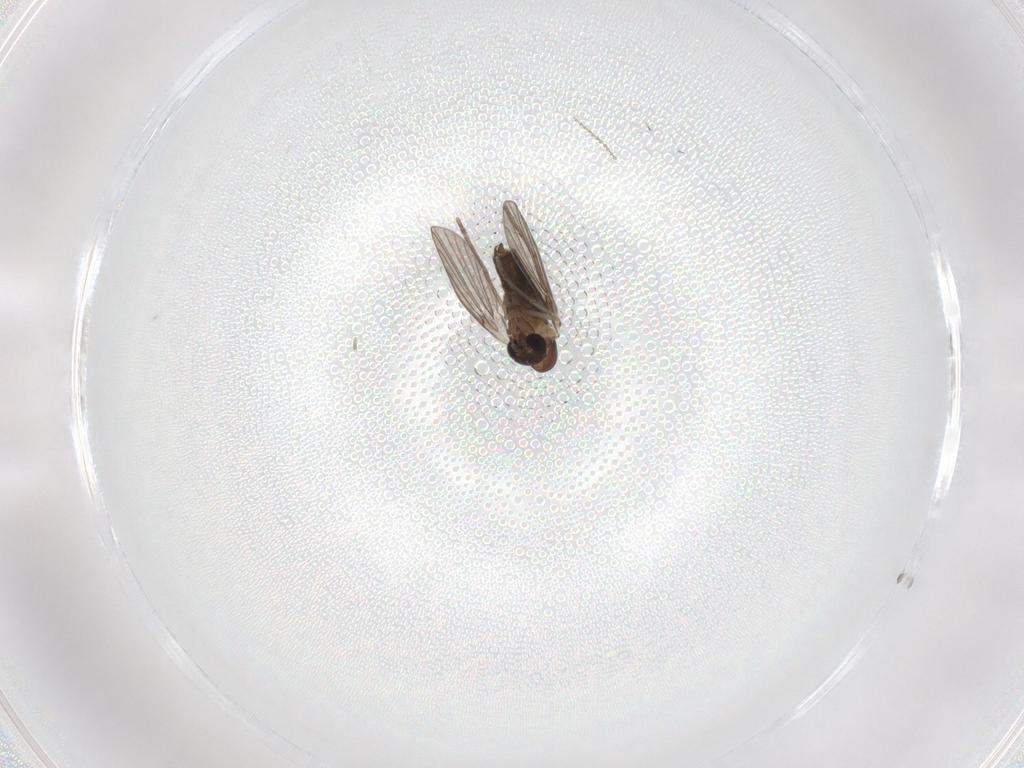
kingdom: Animalia
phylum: Arthropoda
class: Insecta
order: Diptera
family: Cecidomyiidae
